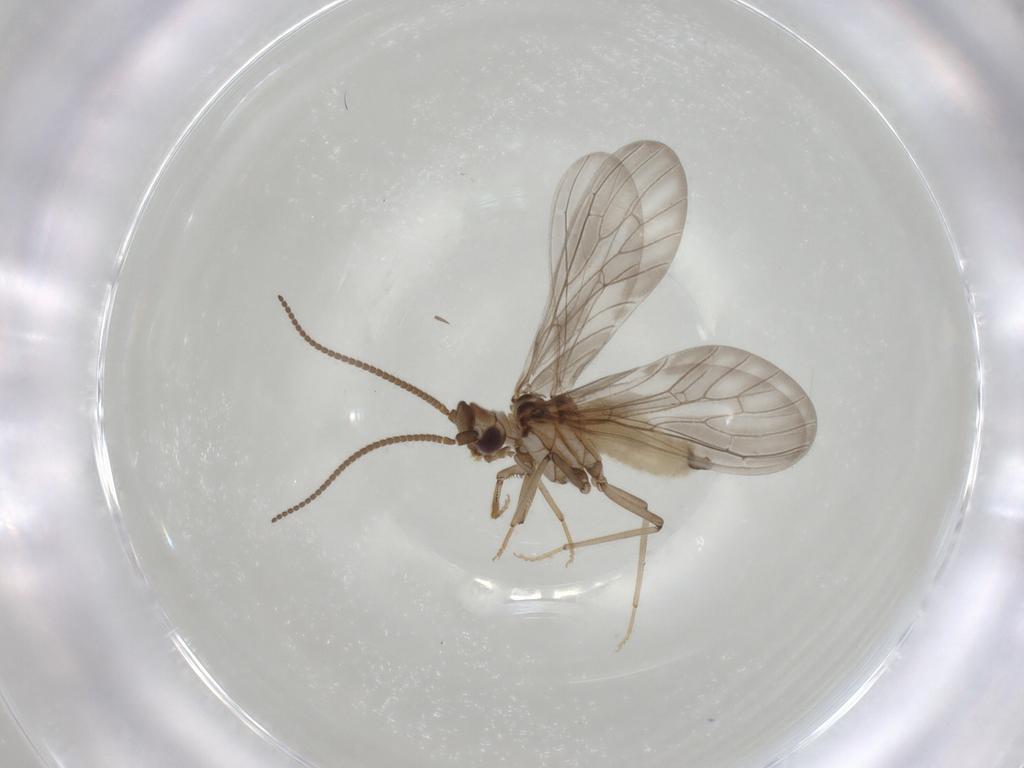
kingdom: Animalia
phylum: Arthropoda
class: Insecta
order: Neuroptera
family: Coniopterygidae
